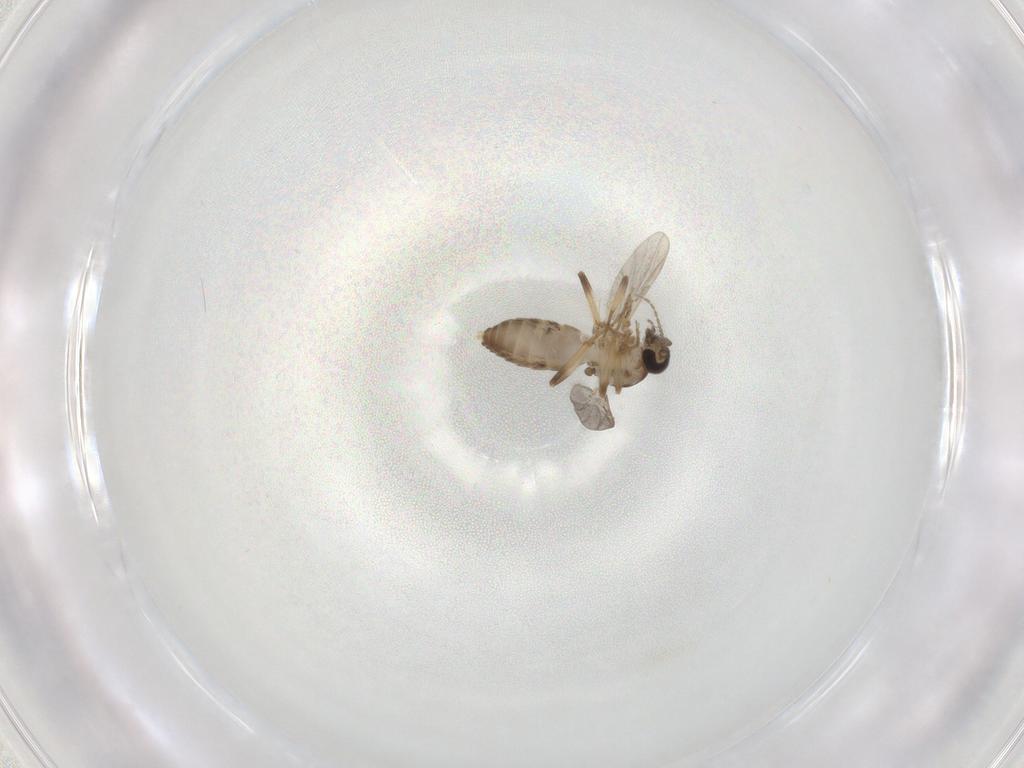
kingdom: Animalia
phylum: Arthropoda
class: Insecta
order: Diptera
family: Ceratopogonidae
